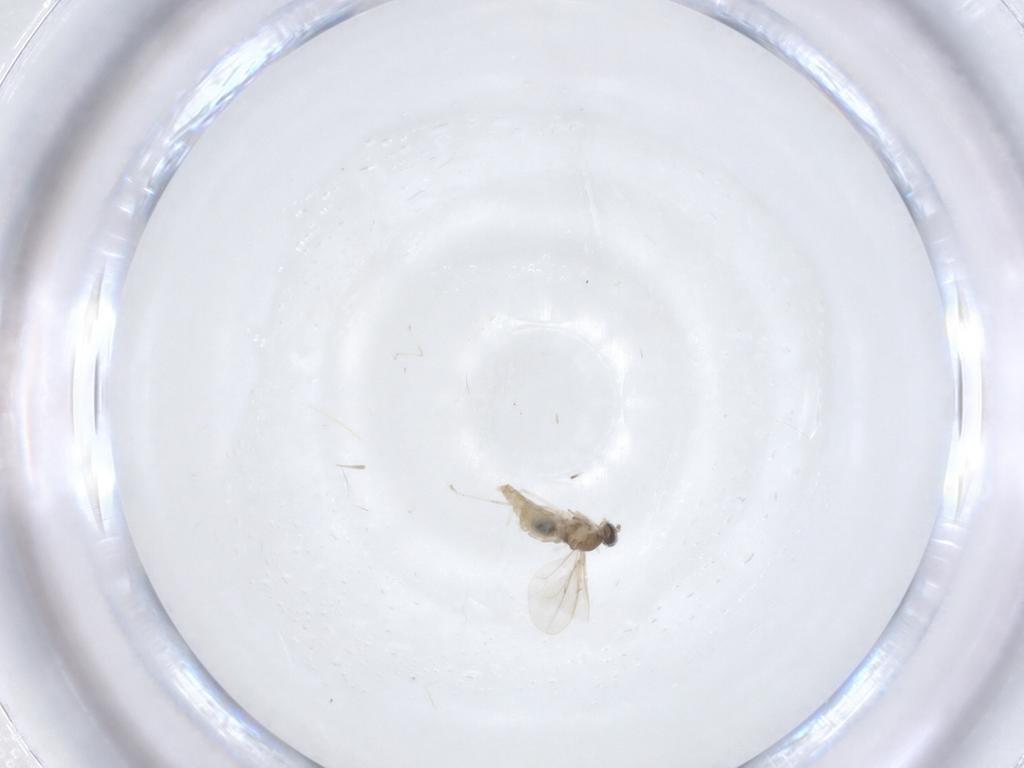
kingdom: Animalia
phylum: Arthropoda
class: Insecta
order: Diptera
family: Cecidomyiidae
